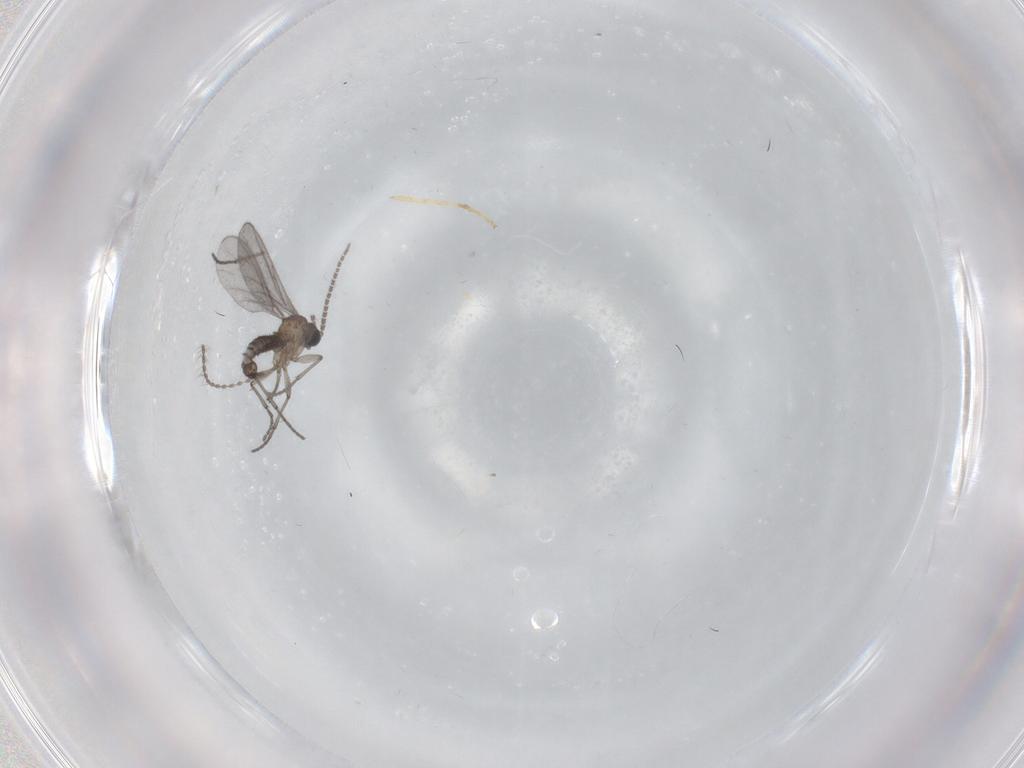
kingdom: Animalia
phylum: Arthropoda
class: Insecta
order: Diptera
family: Sciaridae
